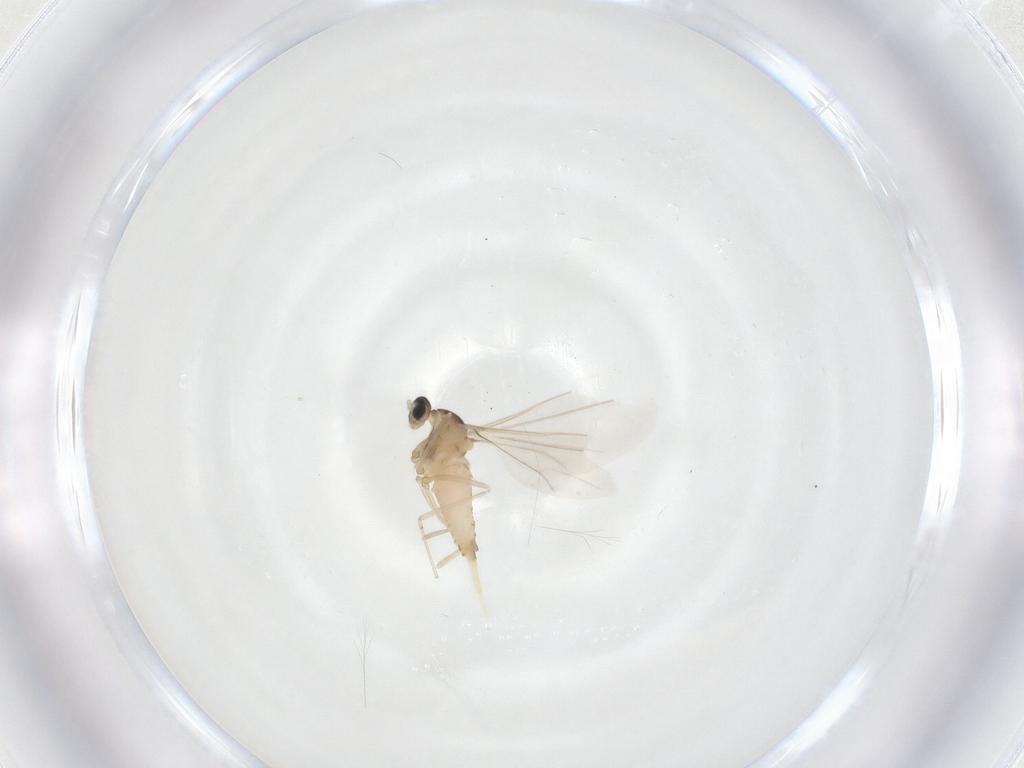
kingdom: Animalia
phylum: Arthropoda
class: Insecta
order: Diptera
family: Cecidomyiidae
